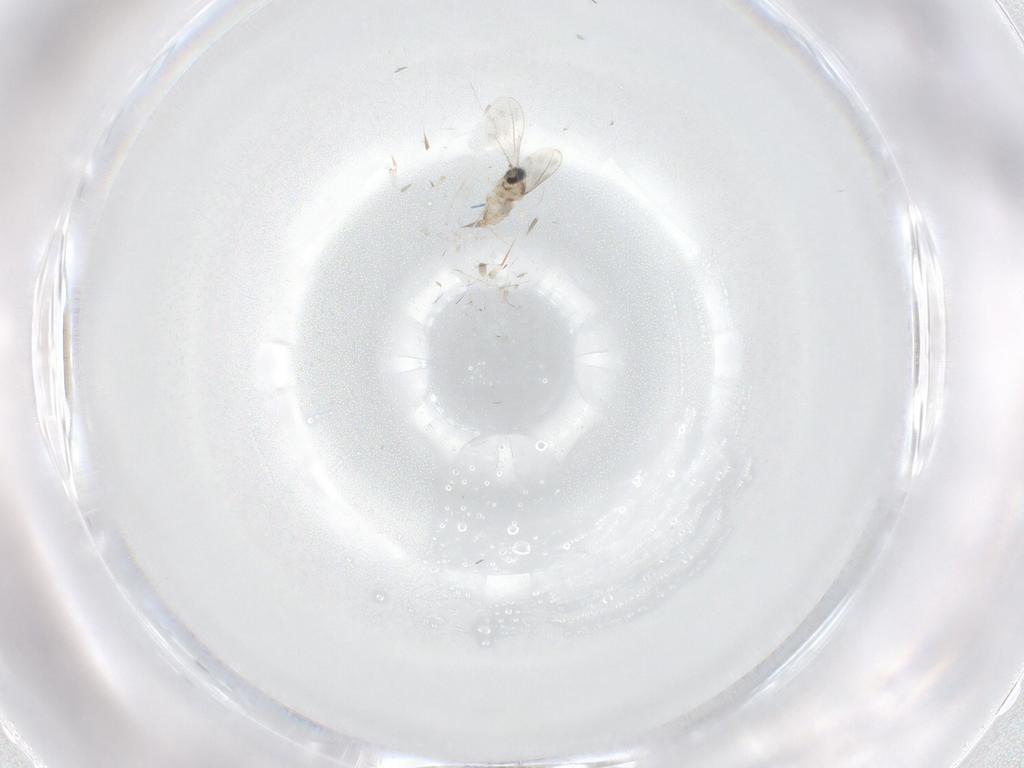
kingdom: Animalia
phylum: Arthropoda
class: Insecta
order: Diptera
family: Cecidomyiidae
